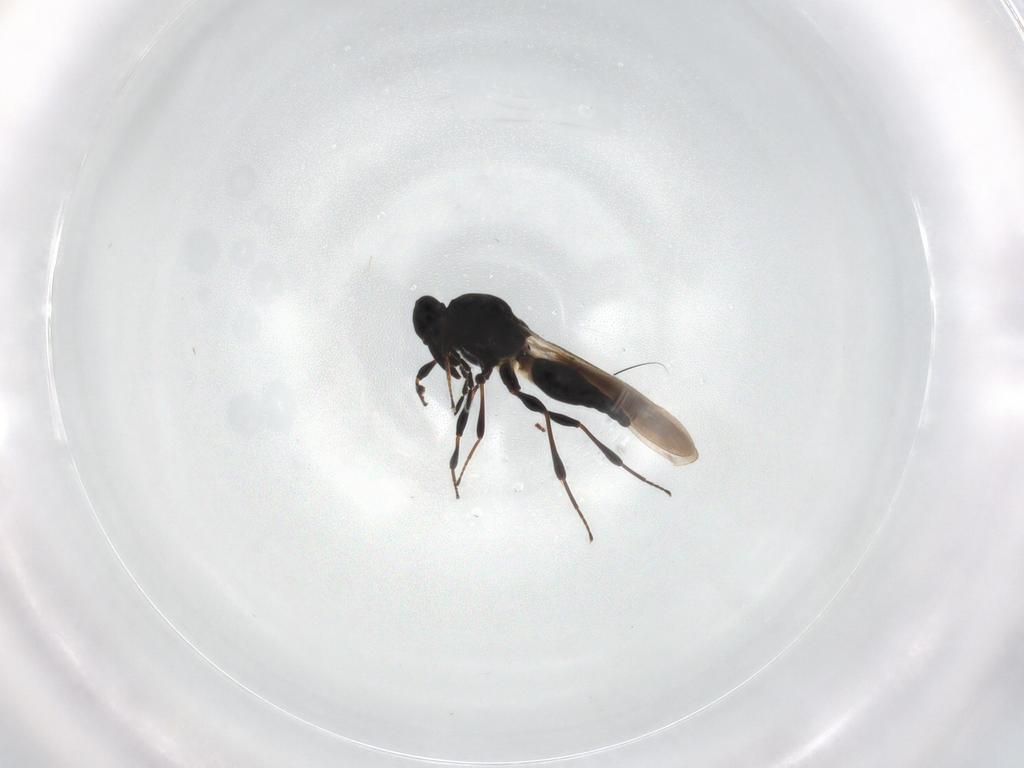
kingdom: Animalia
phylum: Arthropoda
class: Insecta
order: Hymenoptera
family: Platygastridae
